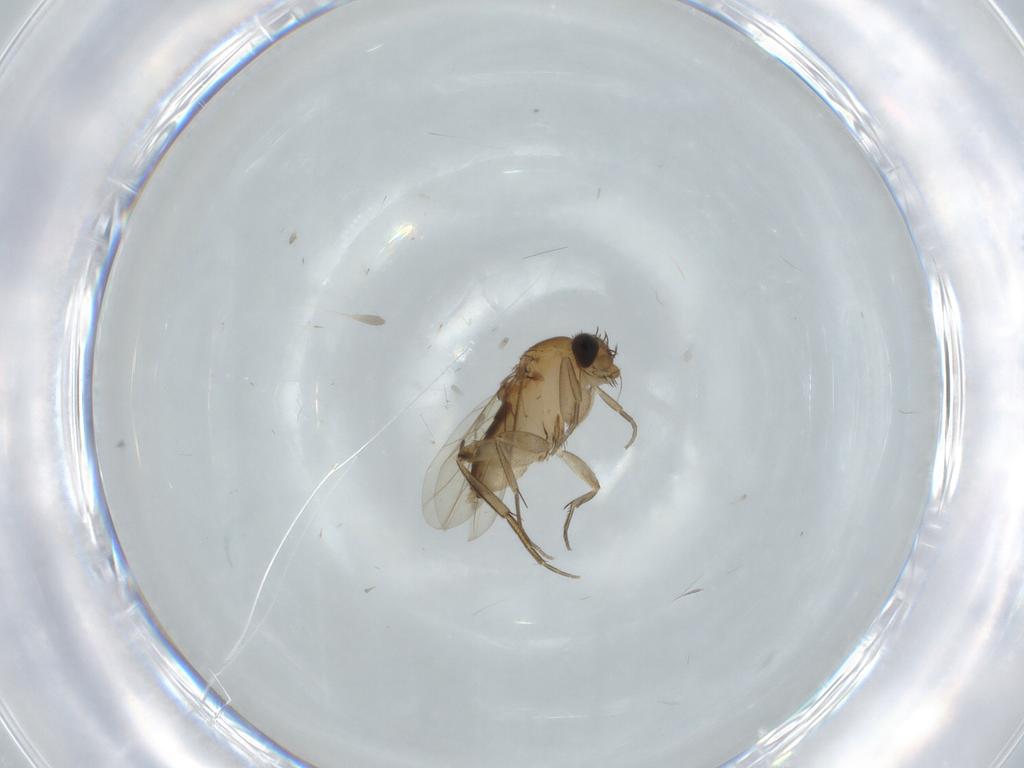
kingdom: Animalia
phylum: Arthropoda
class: Insecta
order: Diptera
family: Phoridae
